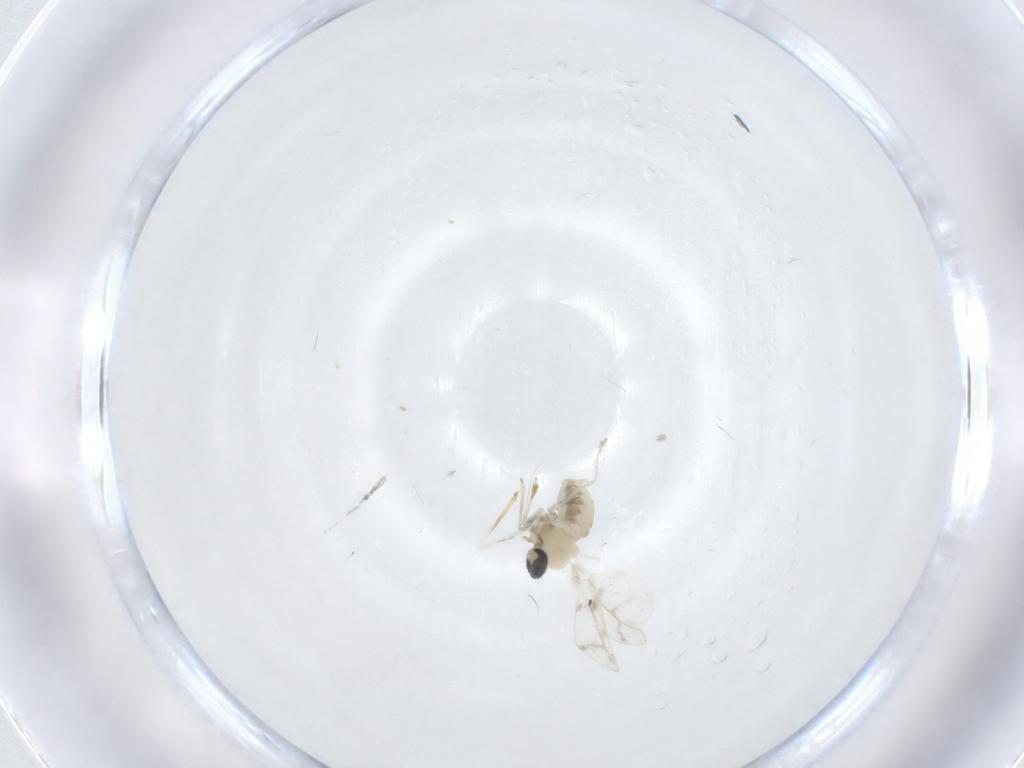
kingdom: Animalia
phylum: Arthropoda
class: Insecta
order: Diptera
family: Cecidomyiidae
